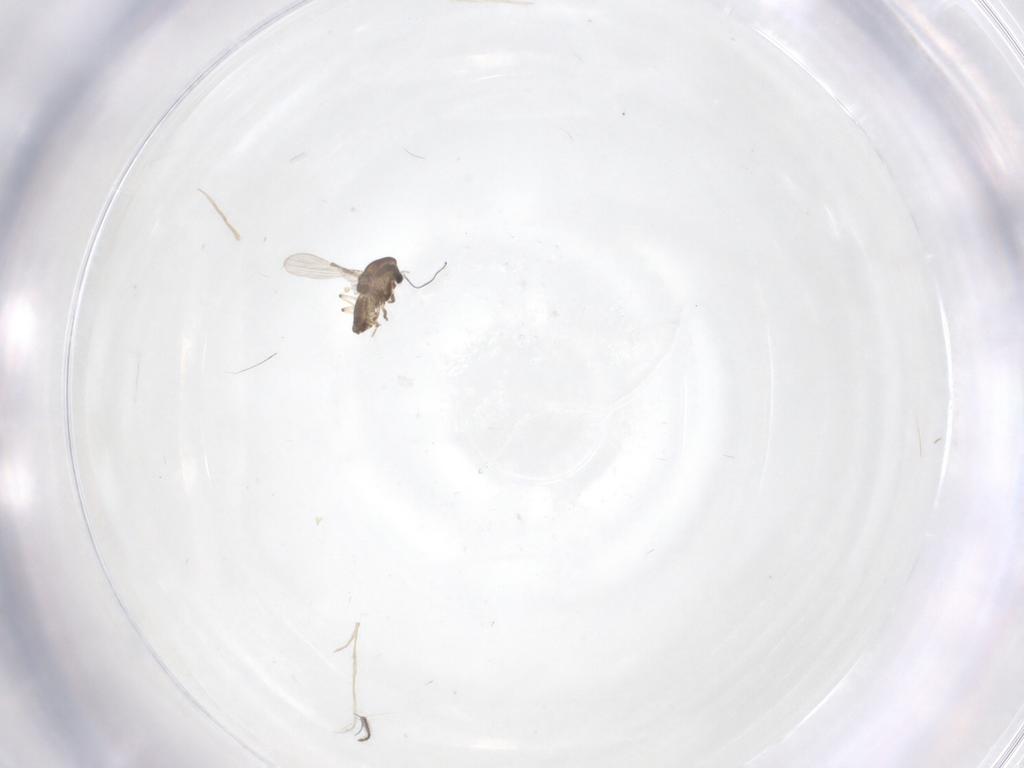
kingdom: Animalia
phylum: Arthropoda
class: Insecta
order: Diptera
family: Chironomidae
